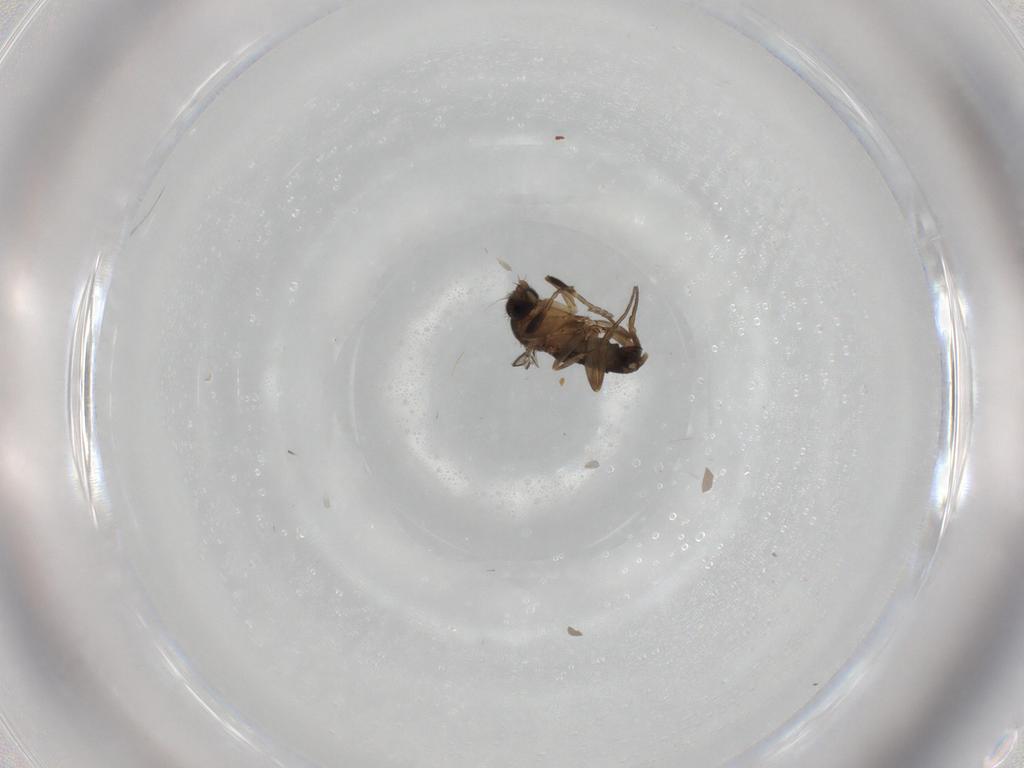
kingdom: Animalia
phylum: Arthropoda
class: Insecta
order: Diptera
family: Phoridae
